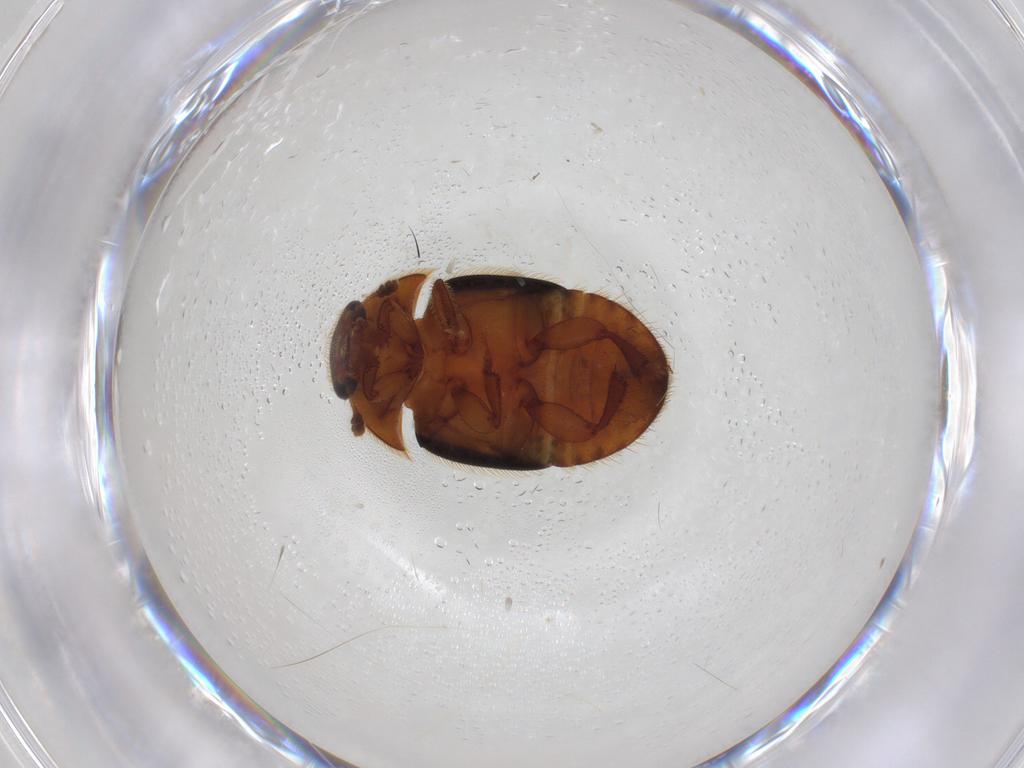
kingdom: Animalia
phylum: Arthropoda
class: Insecta
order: Coleoptera
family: Nitidulidae
